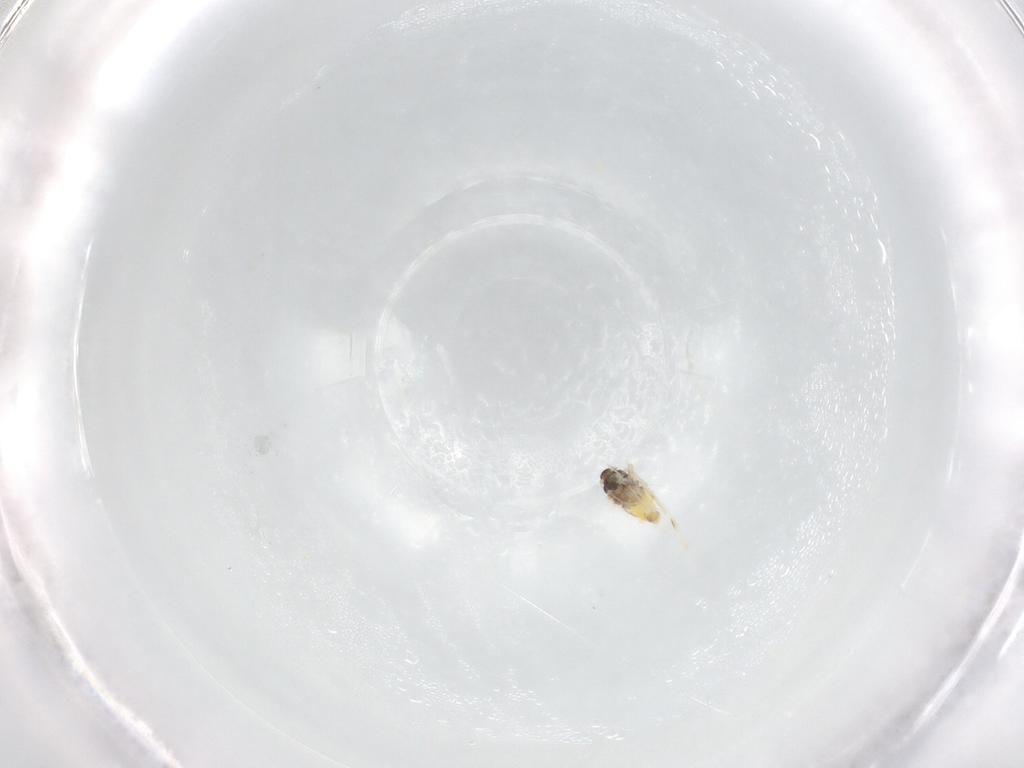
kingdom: Animalia
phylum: Arthropoda
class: Insecta
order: Hemiptera
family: Aleyrodidae
